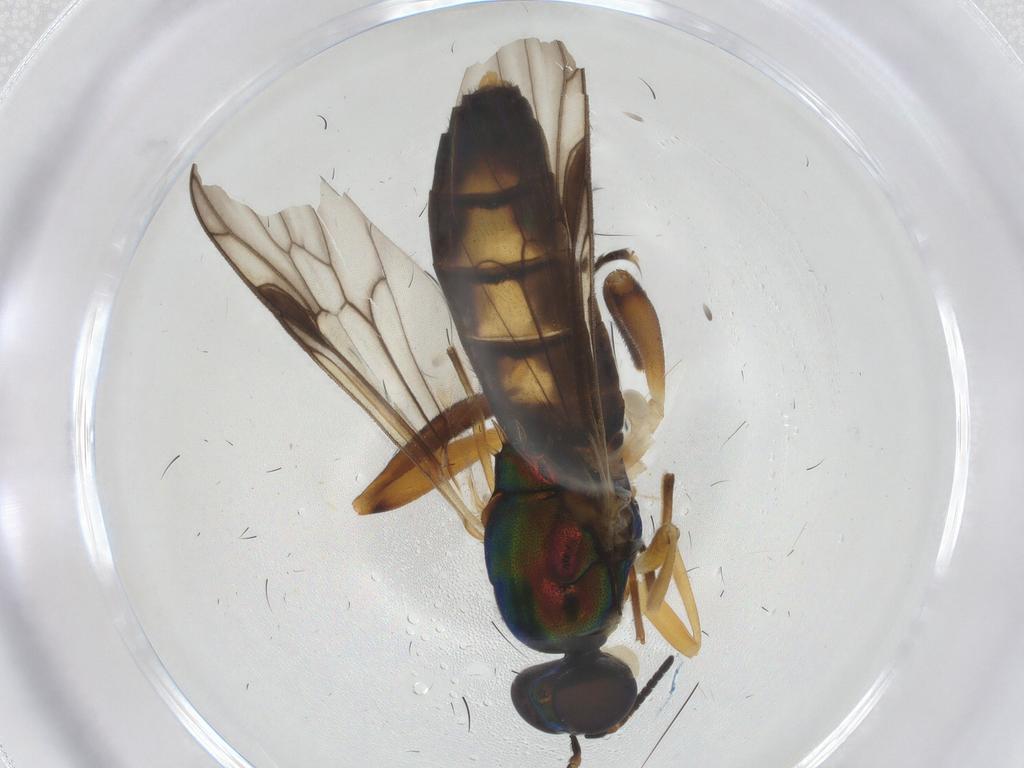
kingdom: Animalia
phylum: Arthropoda
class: Insecta
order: Diptera
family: Stratiomyidae
